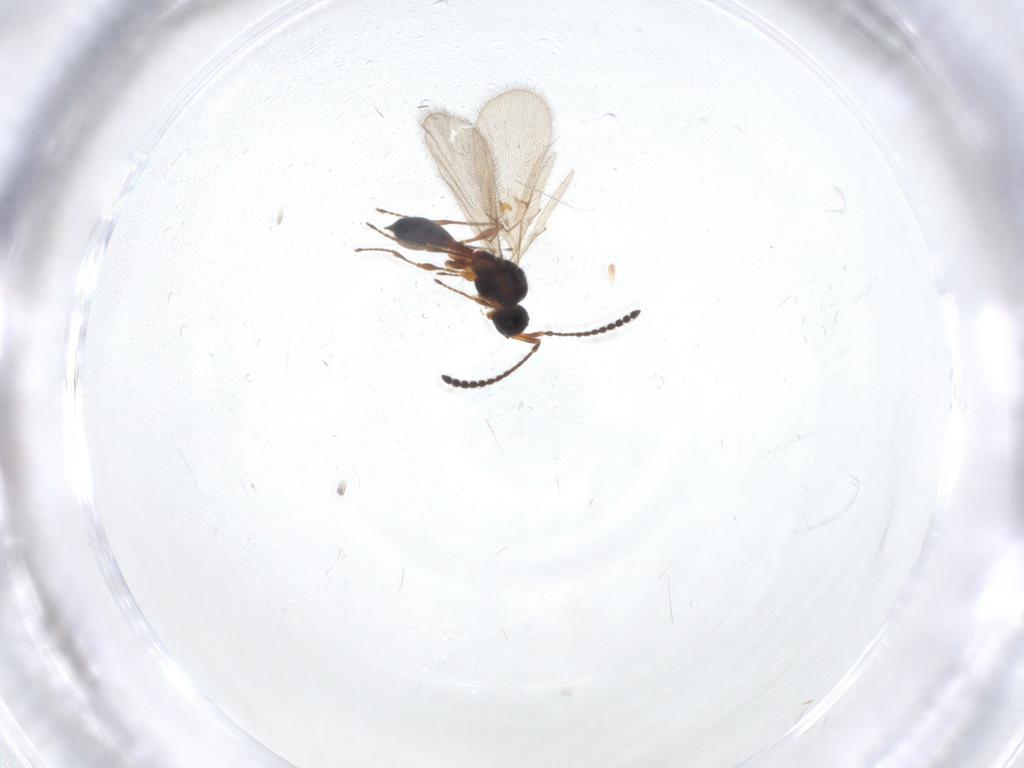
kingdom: Animalia
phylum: Arthropoda
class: Insecta
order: Hymenoptera
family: Diapriidae
